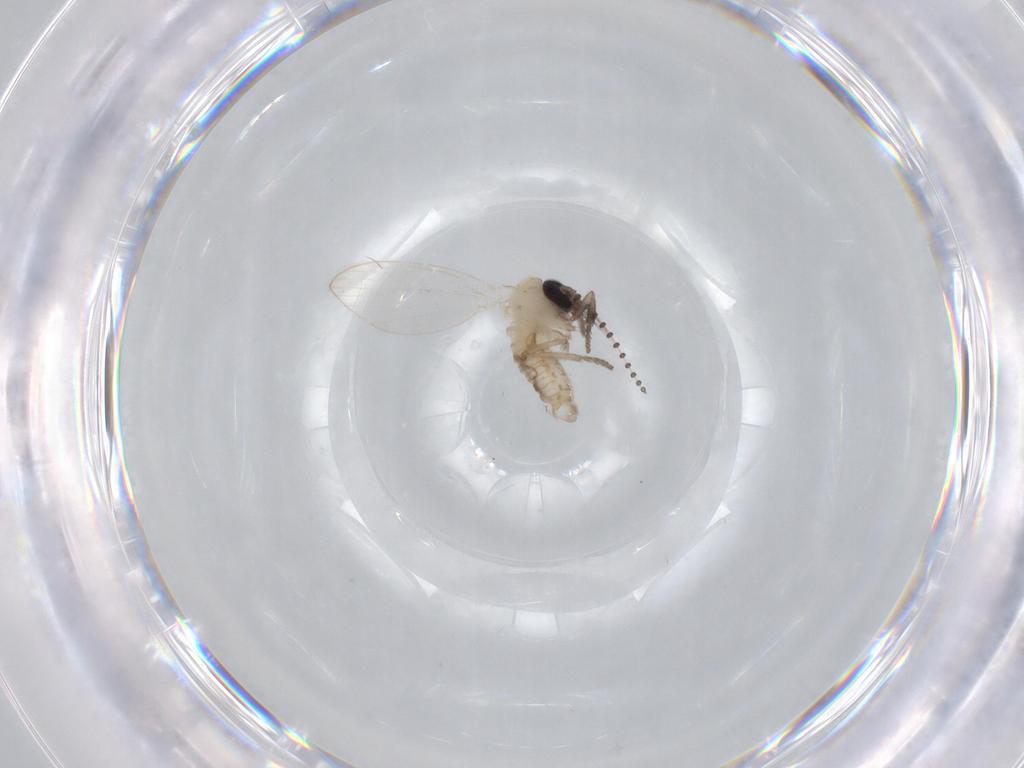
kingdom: Animalia
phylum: Arthropoda
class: Insecta
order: Diptera
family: Psychodidae
